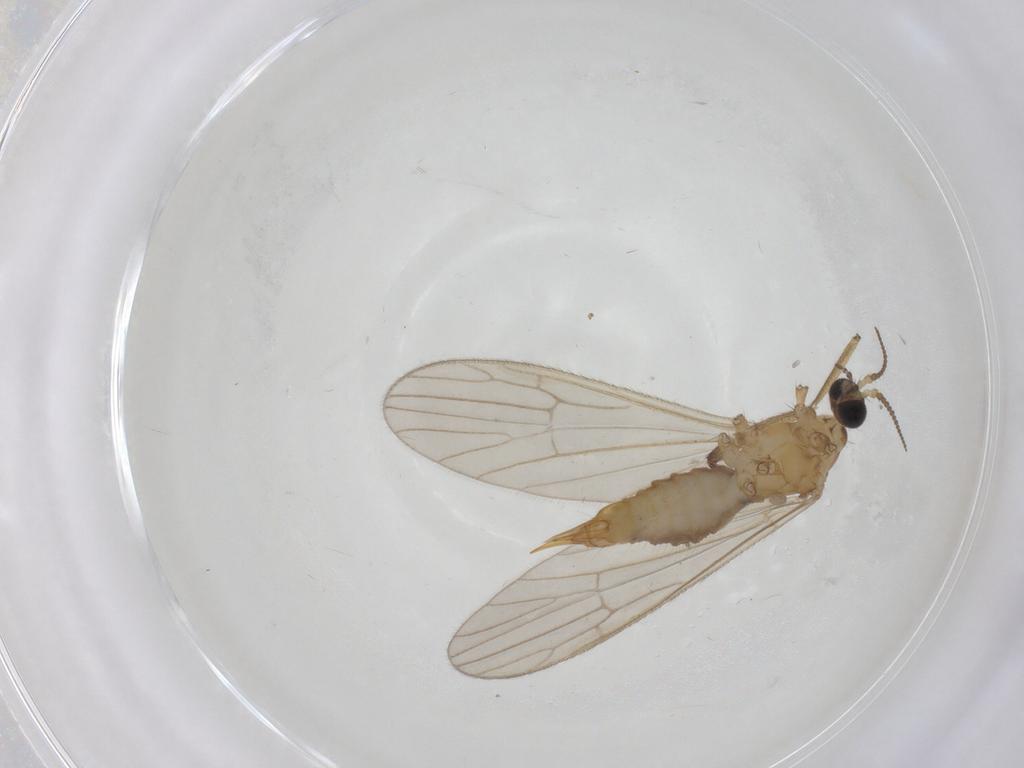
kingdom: Animalia
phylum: Arthropoda
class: Insecta
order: Diptera
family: Limoniidae
